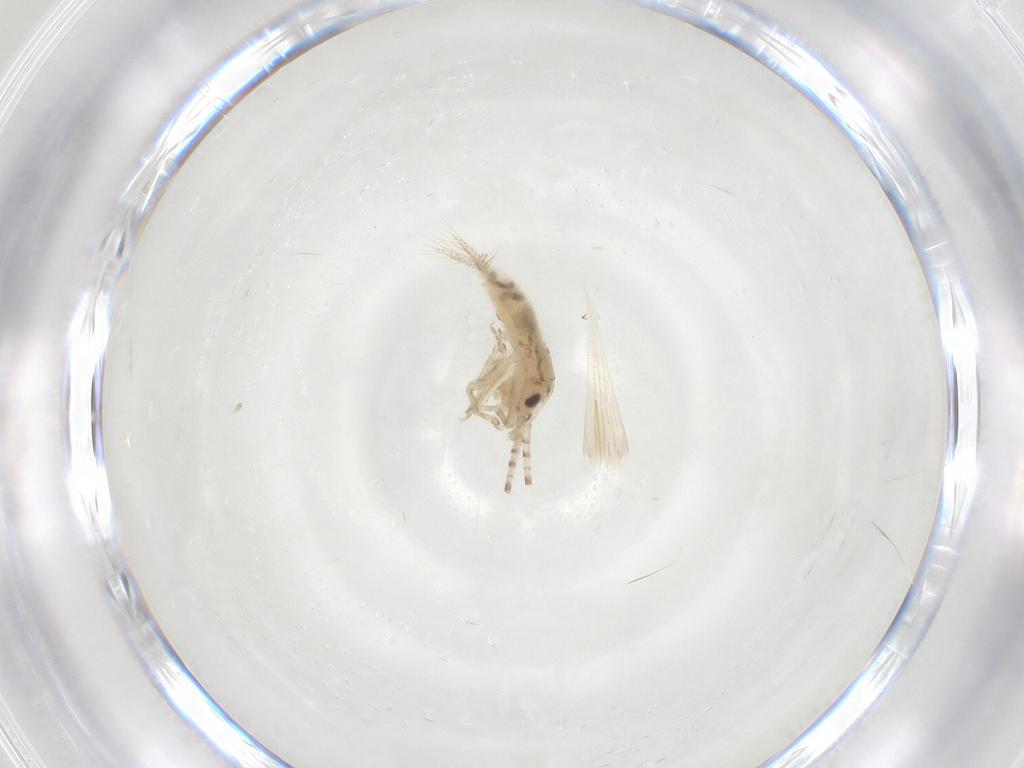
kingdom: Animalia
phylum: Arthropoda
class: Insecta
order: Orthoptera
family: Trigonidiidae
